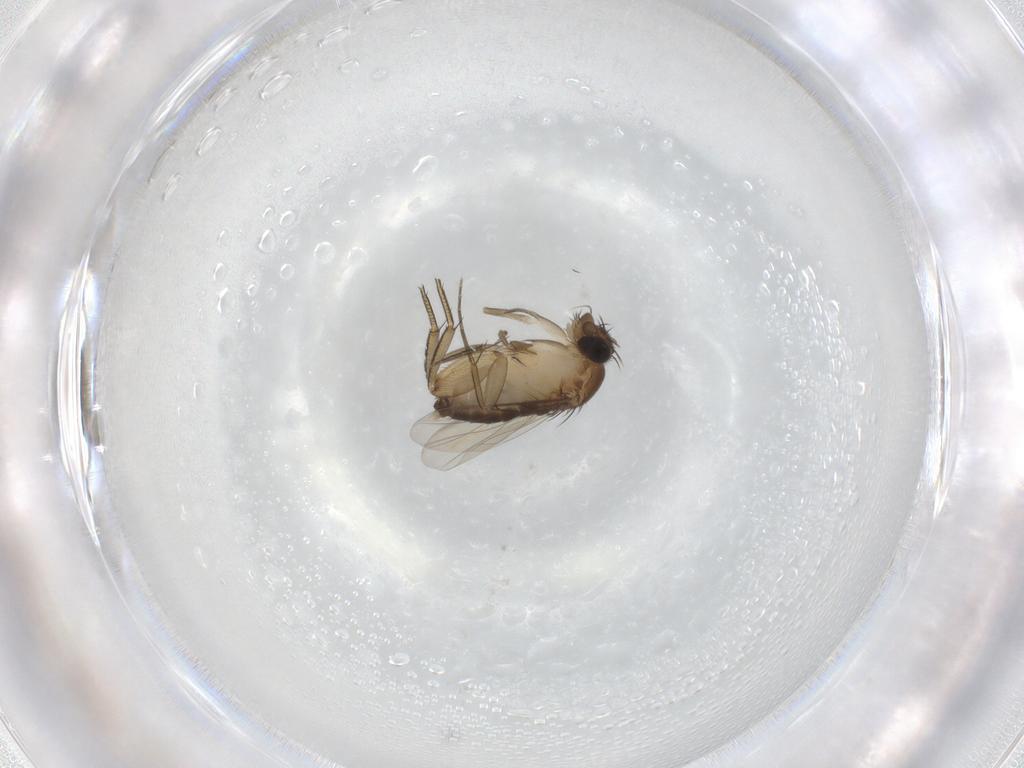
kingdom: Animalia
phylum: Arthropoda
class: Insecta
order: Diptera
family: Phoridae
